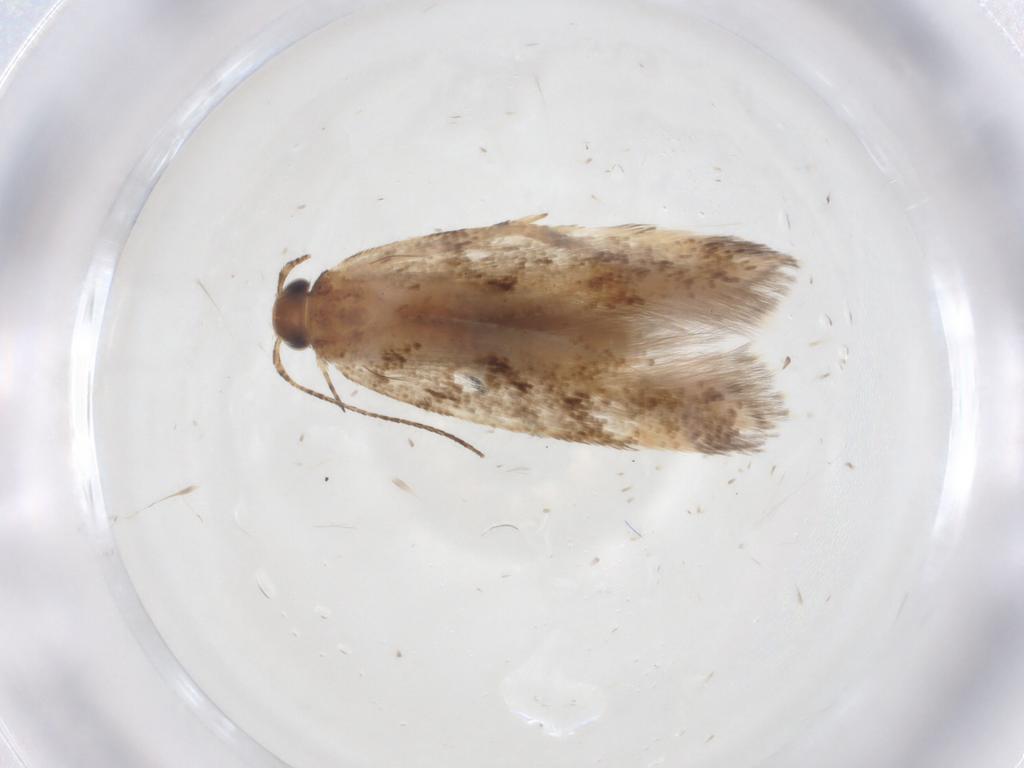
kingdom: Animalia
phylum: Arthropoda
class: Insecta
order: Lepidoptera
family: Gelechiidae
